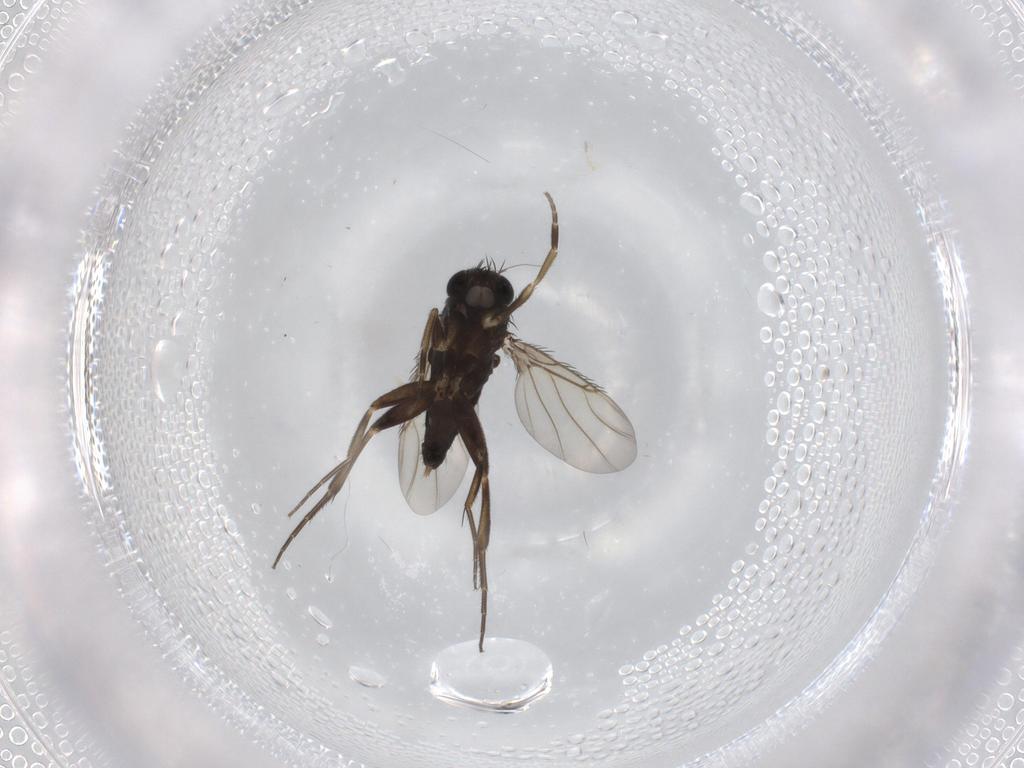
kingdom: Animalia
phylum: Arthropoda
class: Insecta
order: Diptera
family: Phoridae
